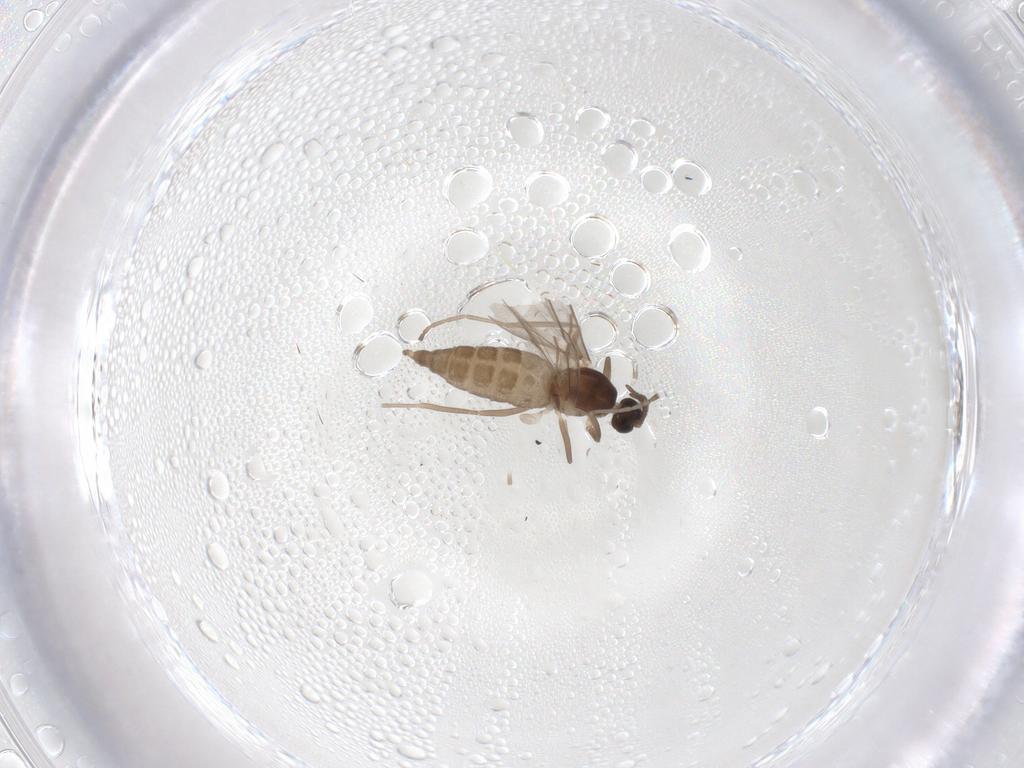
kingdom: Animalia
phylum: Arthropoda
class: Insecta
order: Diptera
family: Cecidomyiidae
